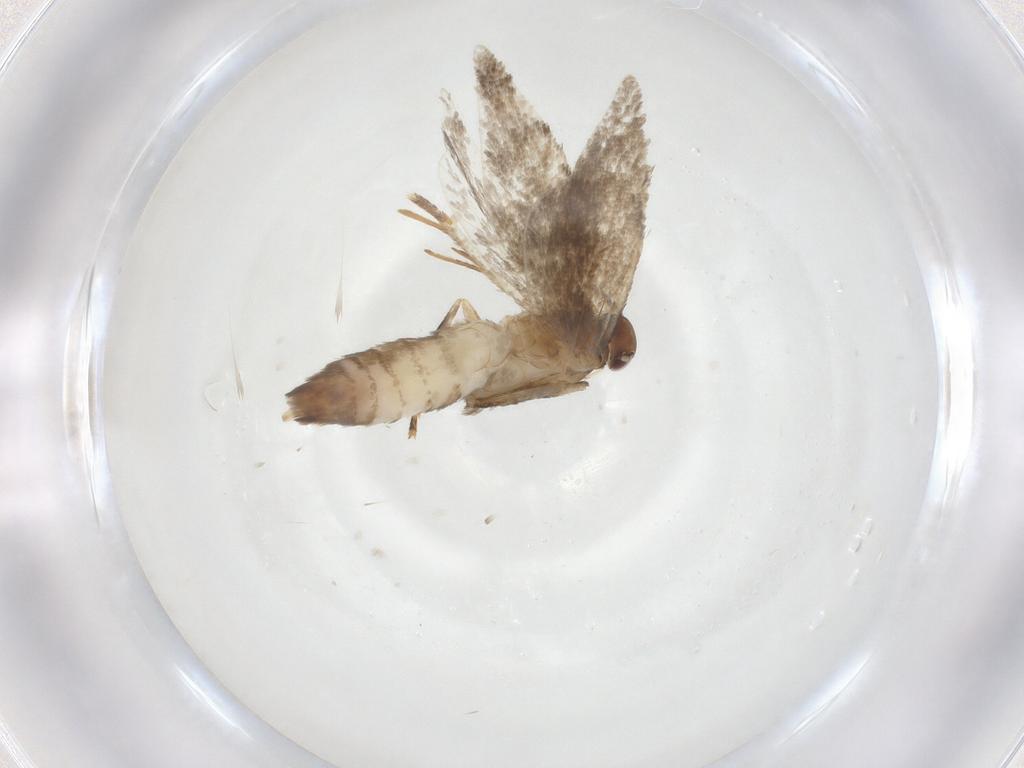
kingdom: Animalia
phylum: Arthropoda
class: Insecta
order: Lepidoptera
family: Gelechiidae
